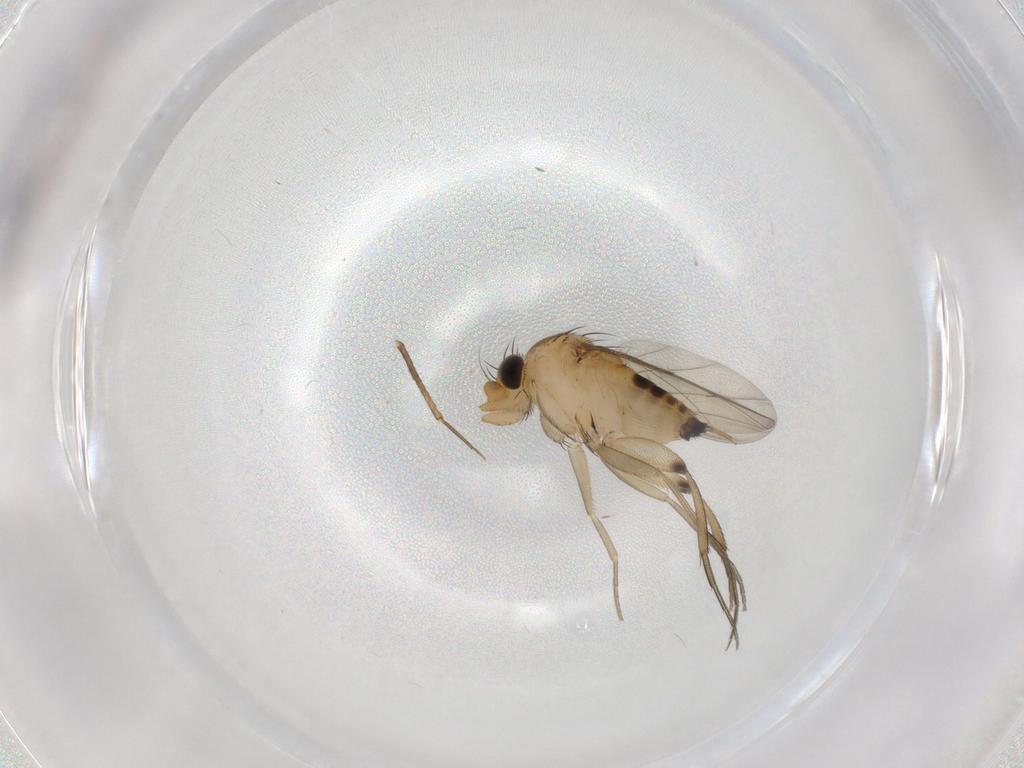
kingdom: Animalia
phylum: Arthropoda
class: Insecta
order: Diptera
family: Phoridae
